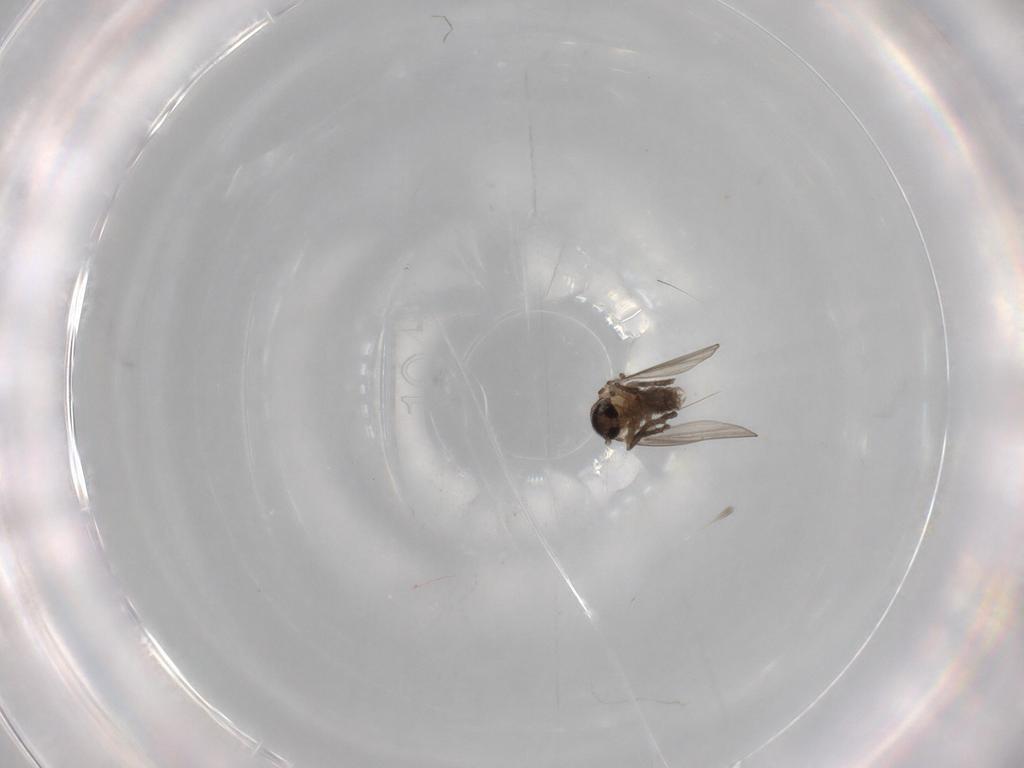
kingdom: Animalia
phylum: Arthropoda
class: Insecta
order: Diptera
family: Psychodidae
